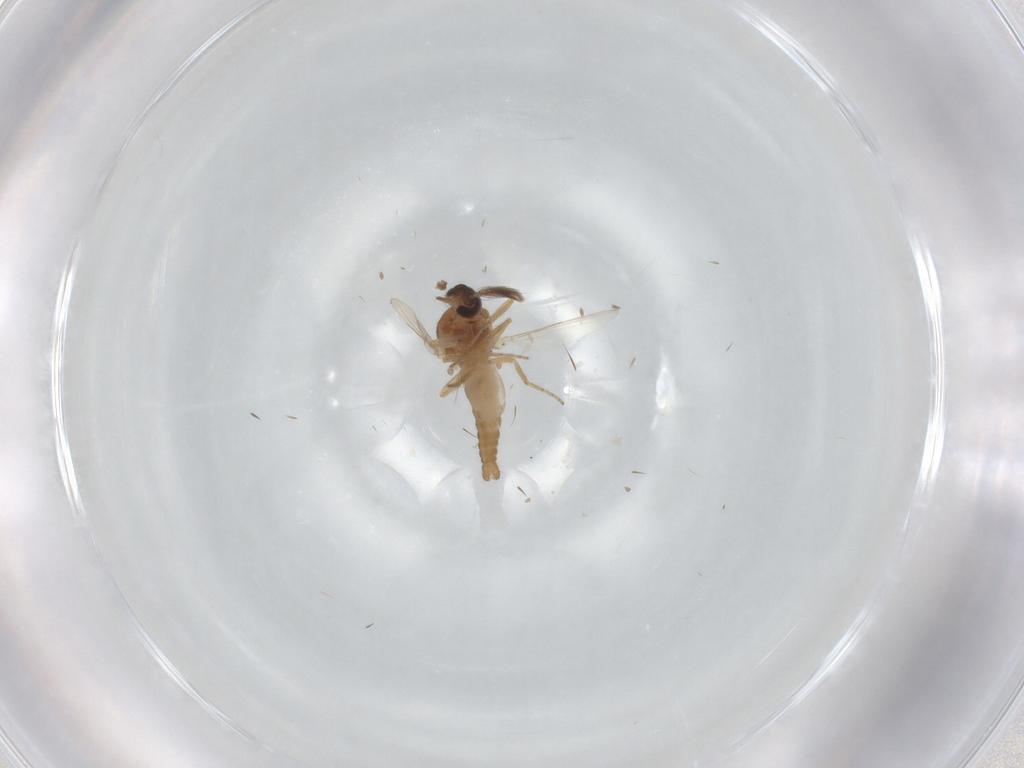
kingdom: Animalia
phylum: Arthropoda
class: Insecta
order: Diptera
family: Ceratopogonidae
